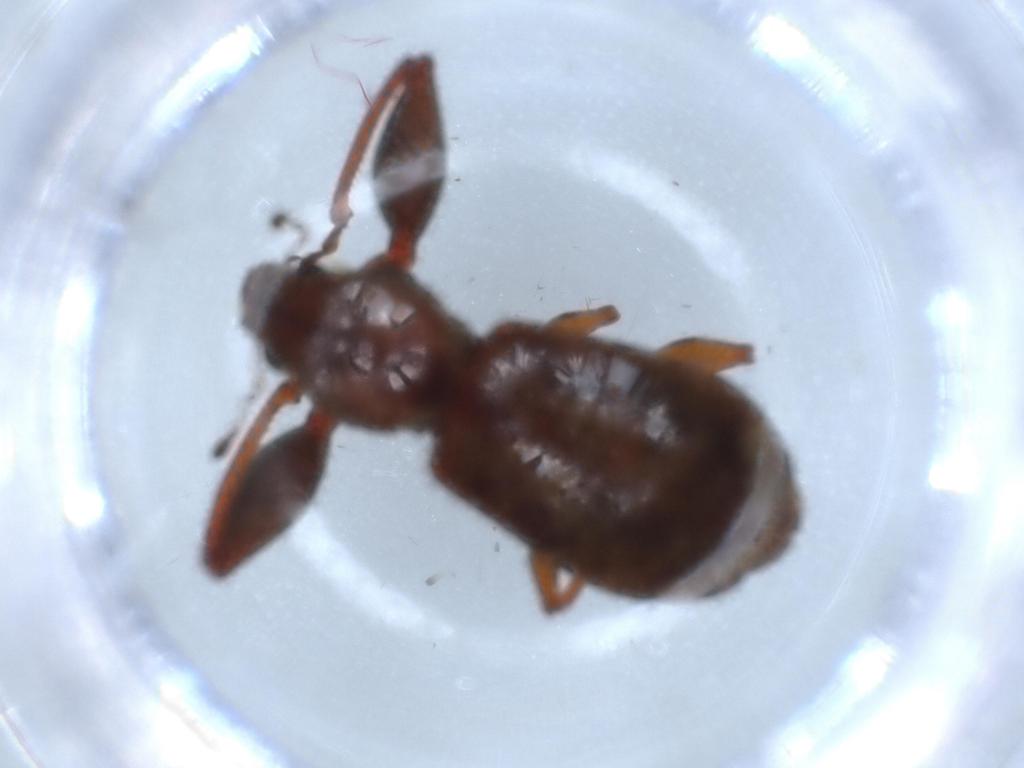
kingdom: Animalia
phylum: Arthropoda
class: Insecta
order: Coleoptera
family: Curculionidae
